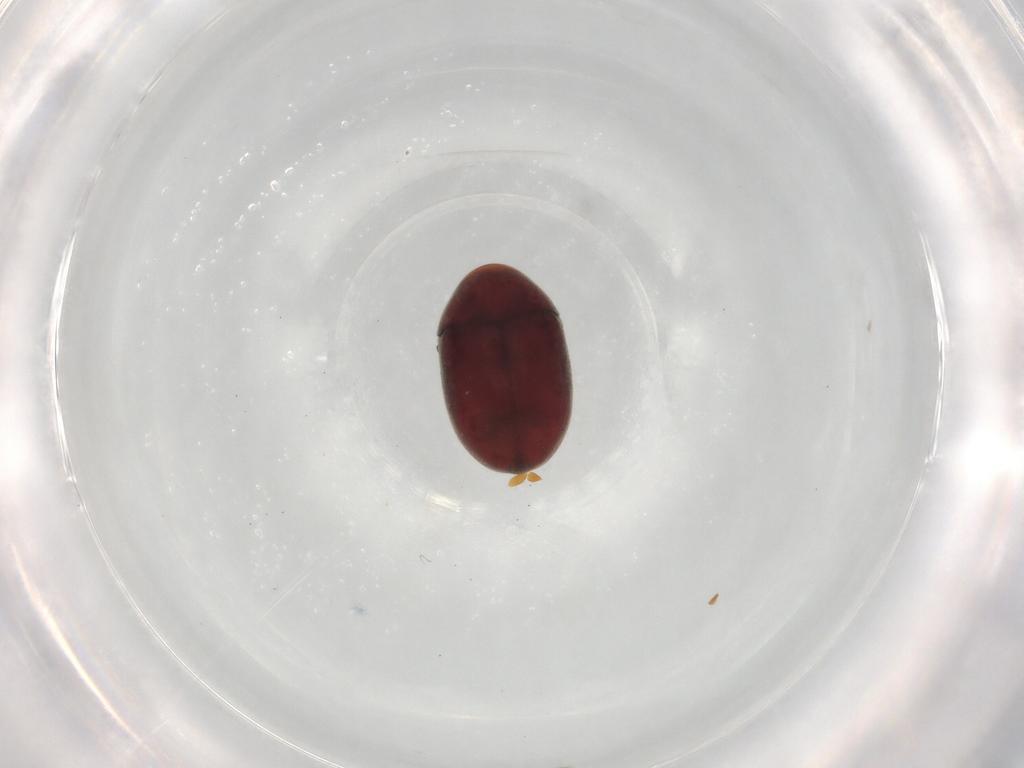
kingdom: Animalia
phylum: Arthropoda
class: Insecta
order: Coleoptera
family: Ptinidae
